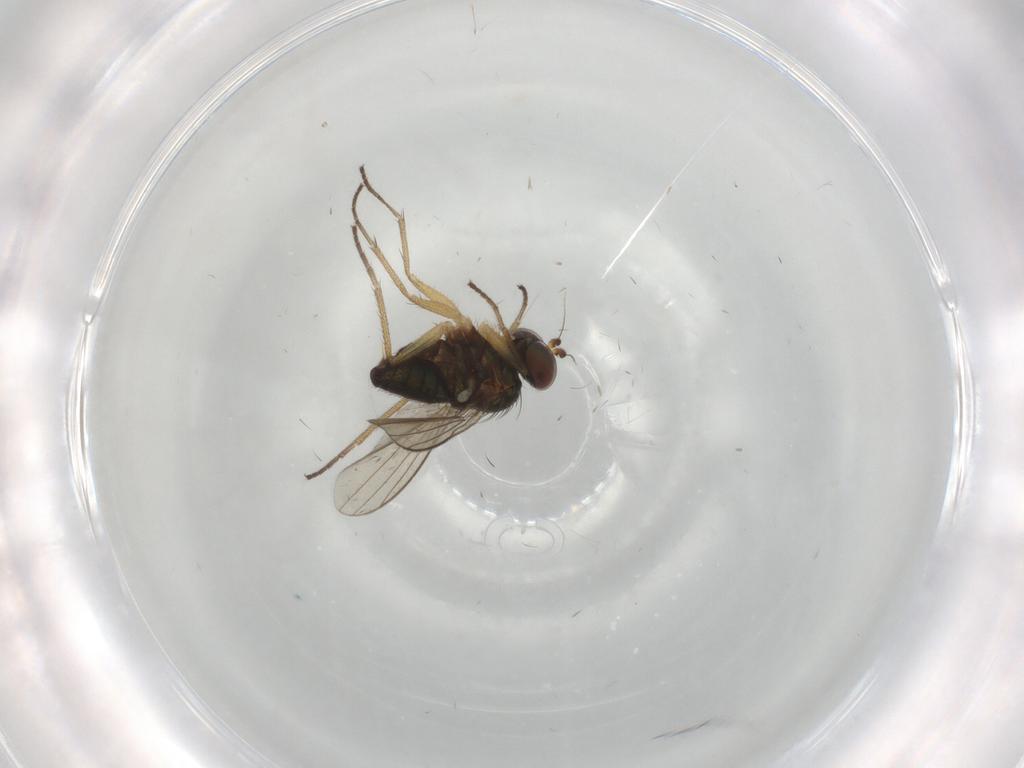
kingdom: Animalia
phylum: Arthropoda
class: Insecta
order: Diptera
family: Dolichopodidae
